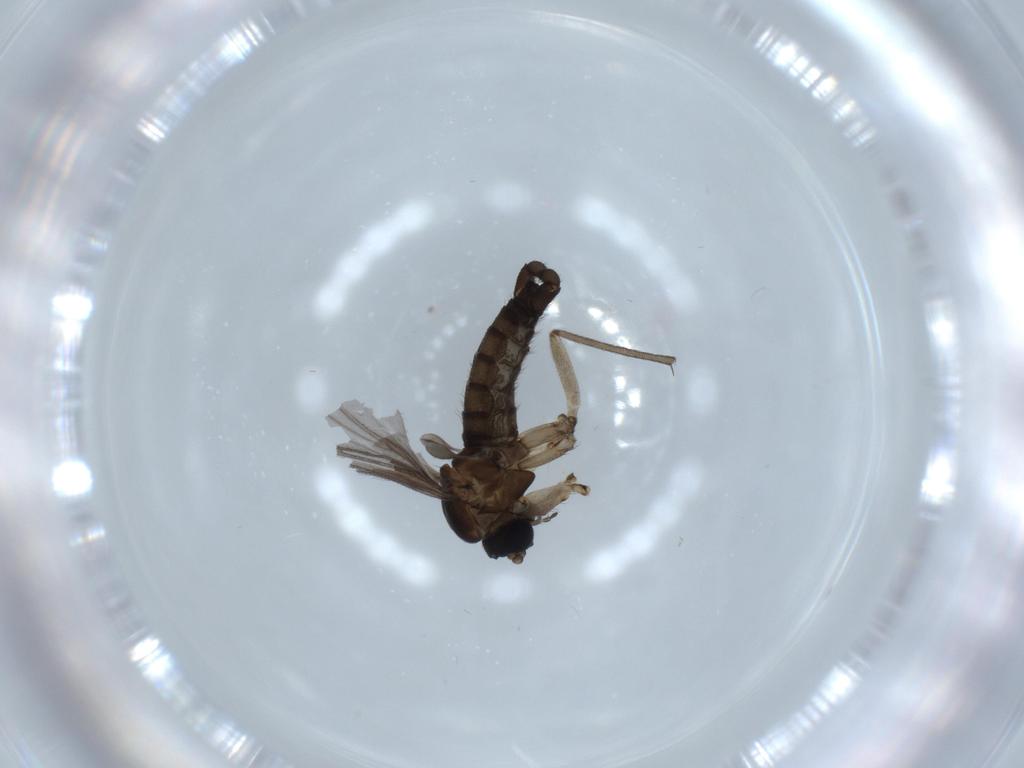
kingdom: Animalia
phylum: Arthropoda
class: Insecta
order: Diptera
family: Sciaridae
